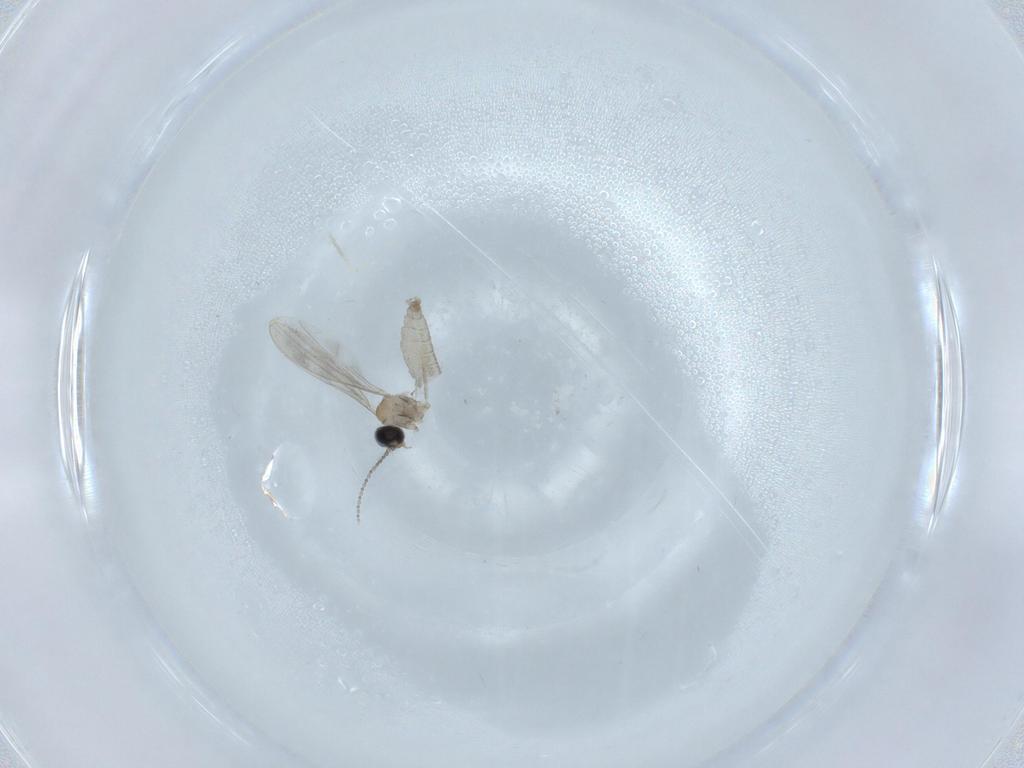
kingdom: Animalia
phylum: Arthropoda
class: Insecta
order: Diptera
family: Cecidomyiidae
